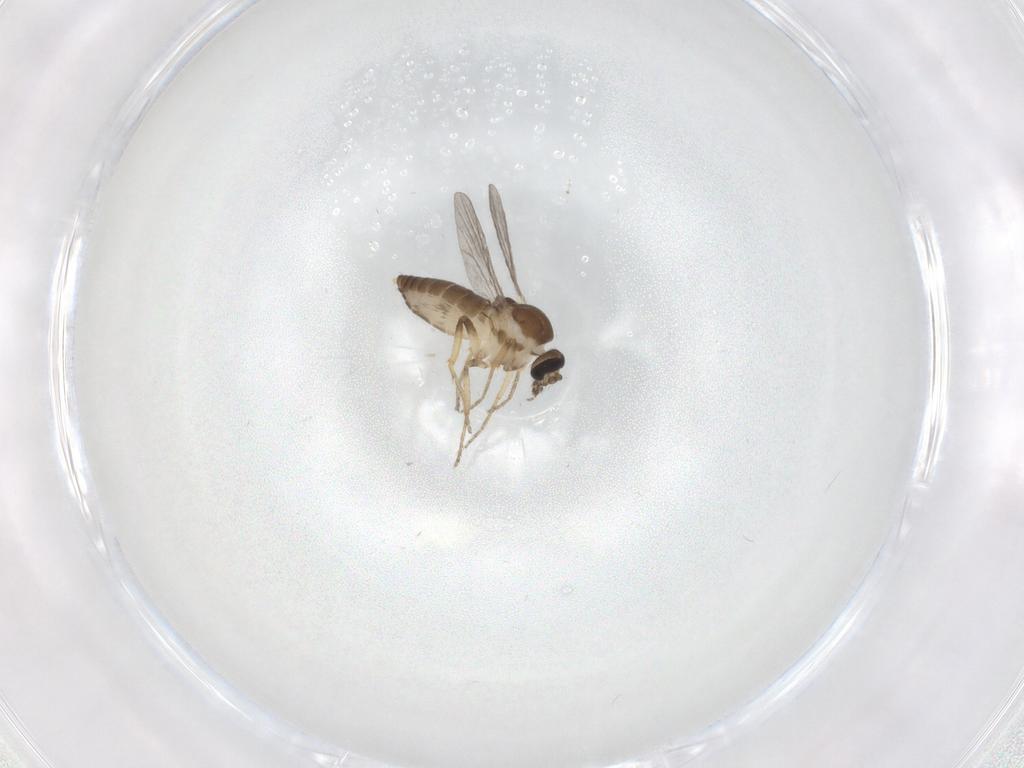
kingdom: Animalia
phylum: Arthropoda
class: Insecta
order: Diptera
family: Ceratopogonidae
